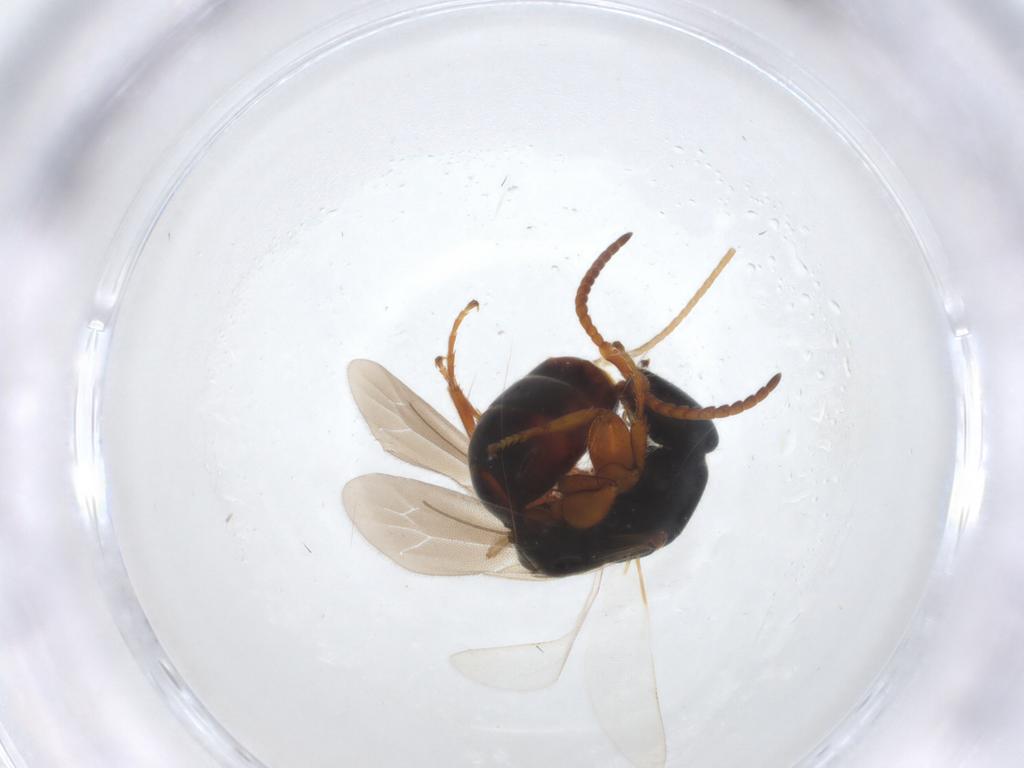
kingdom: Animalia
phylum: Arthropoda
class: Insecta
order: Hymenoptera
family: Bethylidae
